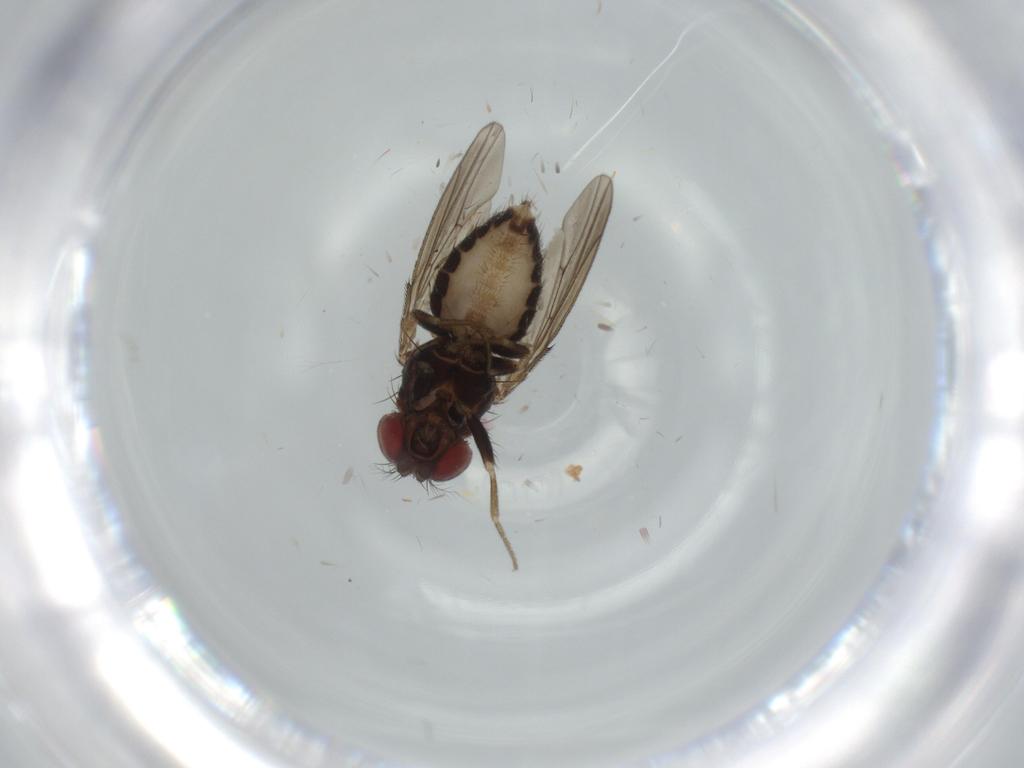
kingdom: Animalia
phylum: Arthropoda
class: Insecta
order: Diptera
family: Drosophilidae
